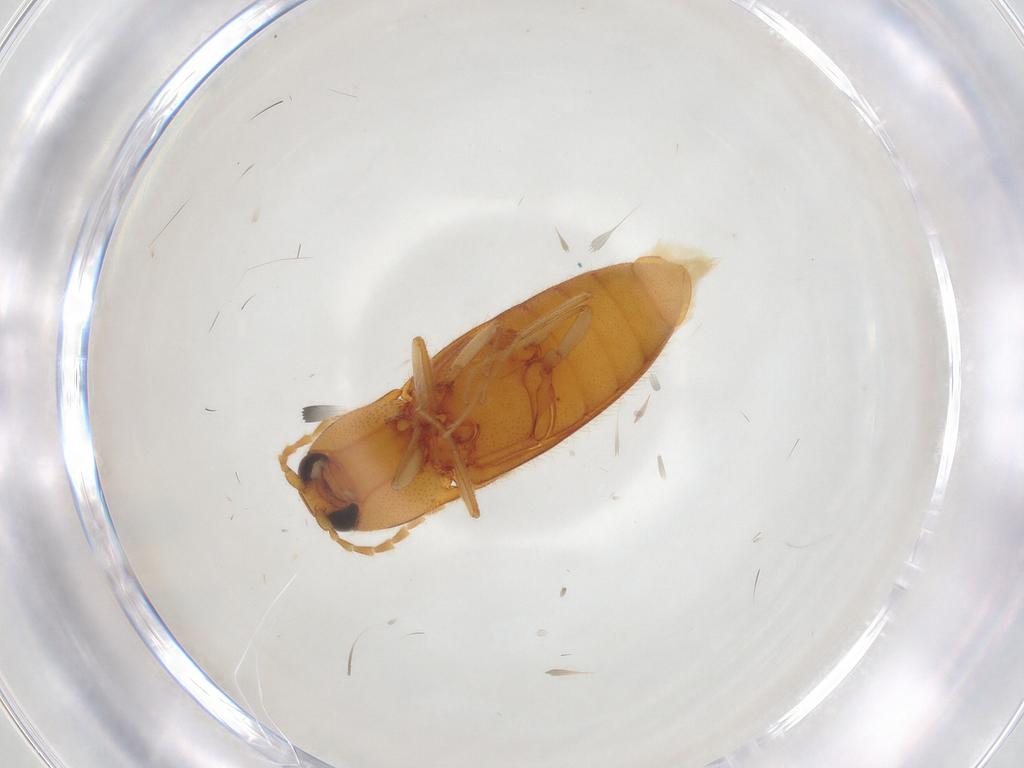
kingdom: Animalia
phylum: Arthropoda
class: Insecta
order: Coleoptera
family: Elateridae
